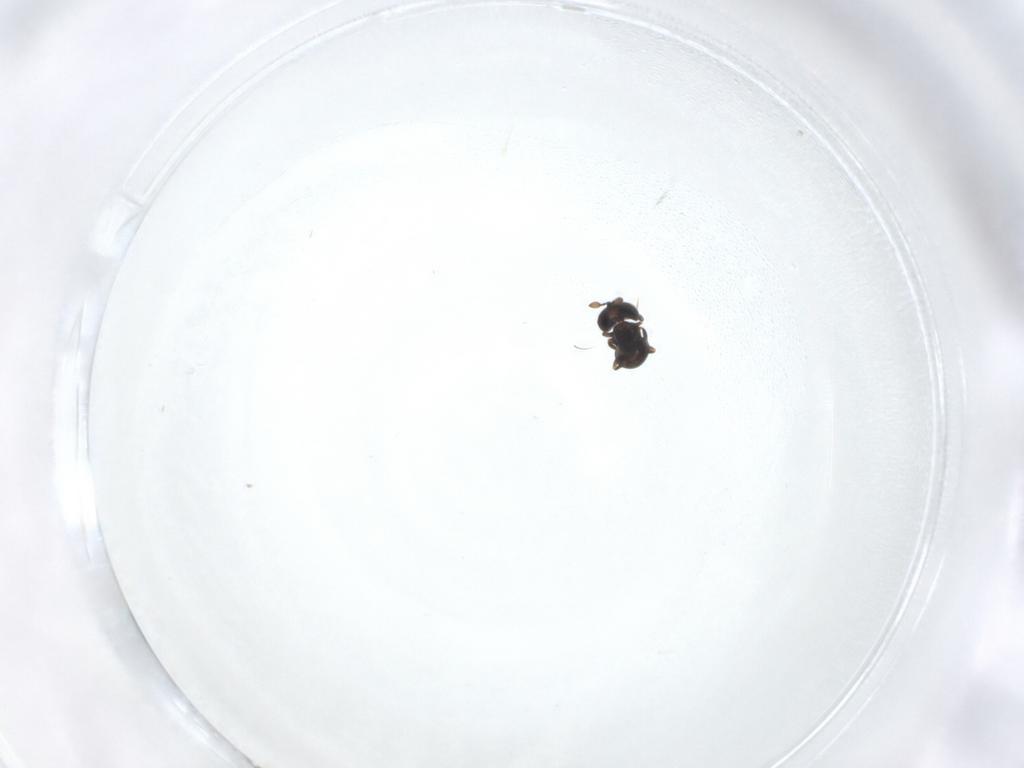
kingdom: Animalia
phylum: Arthropoda
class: Insecta
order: Hymenoptera
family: Scelionidae
